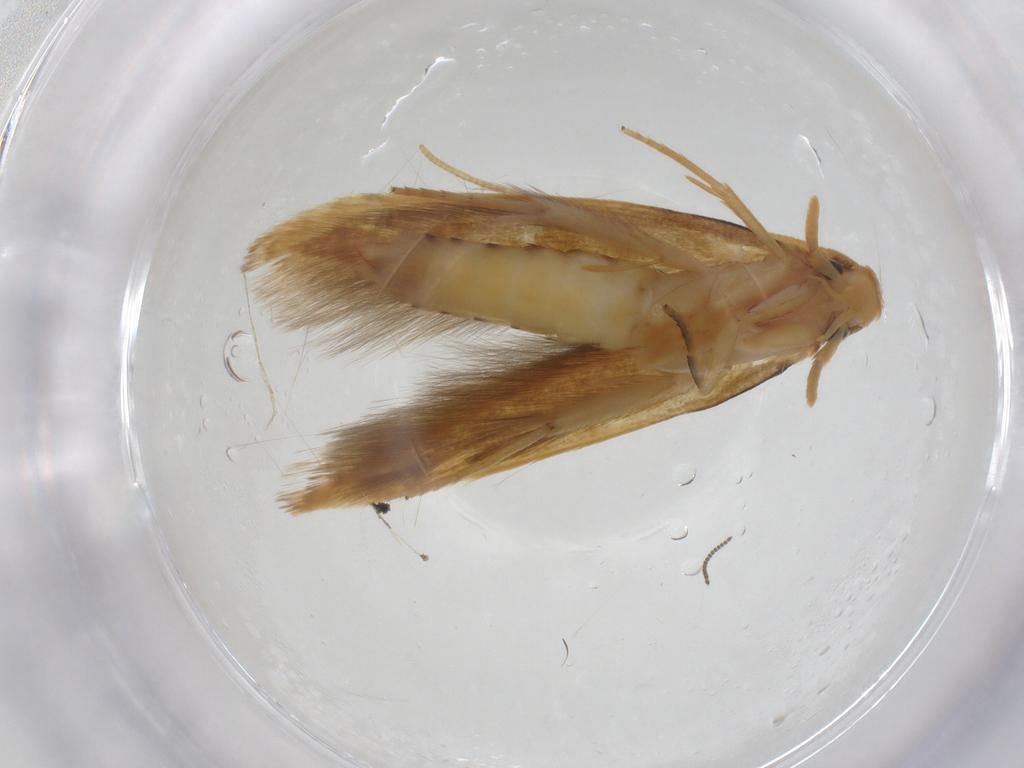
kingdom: Animalia
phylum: Arthropoda
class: Insecta
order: Lepidoptera
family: Tineidae
